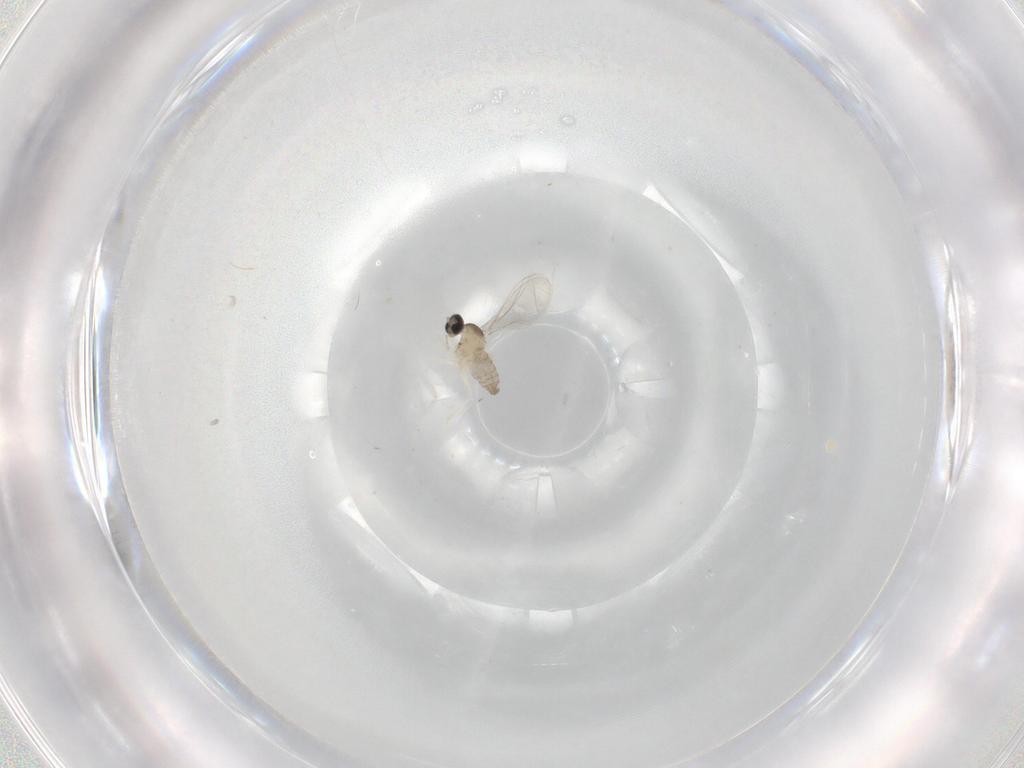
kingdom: Animalia
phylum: Arthropoda
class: Insecta
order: Diptera
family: Cecidomyiidae
